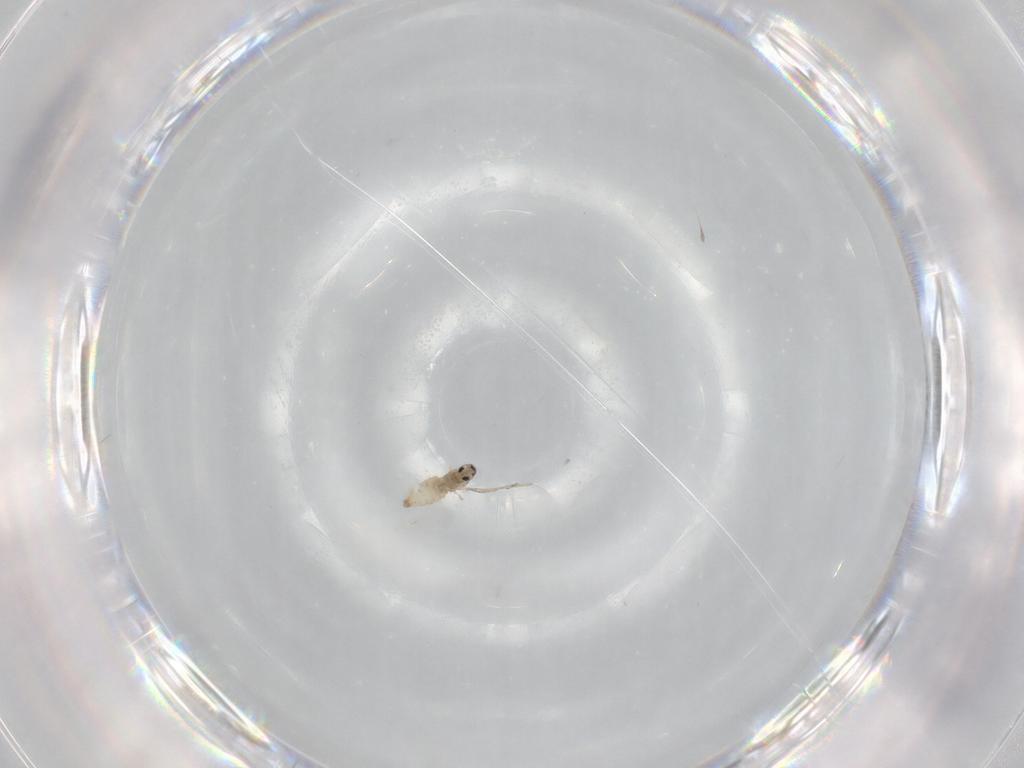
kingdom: Animalia
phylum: Arthropoda
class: Insecta
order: Diptera
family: Cecidomyiidae
